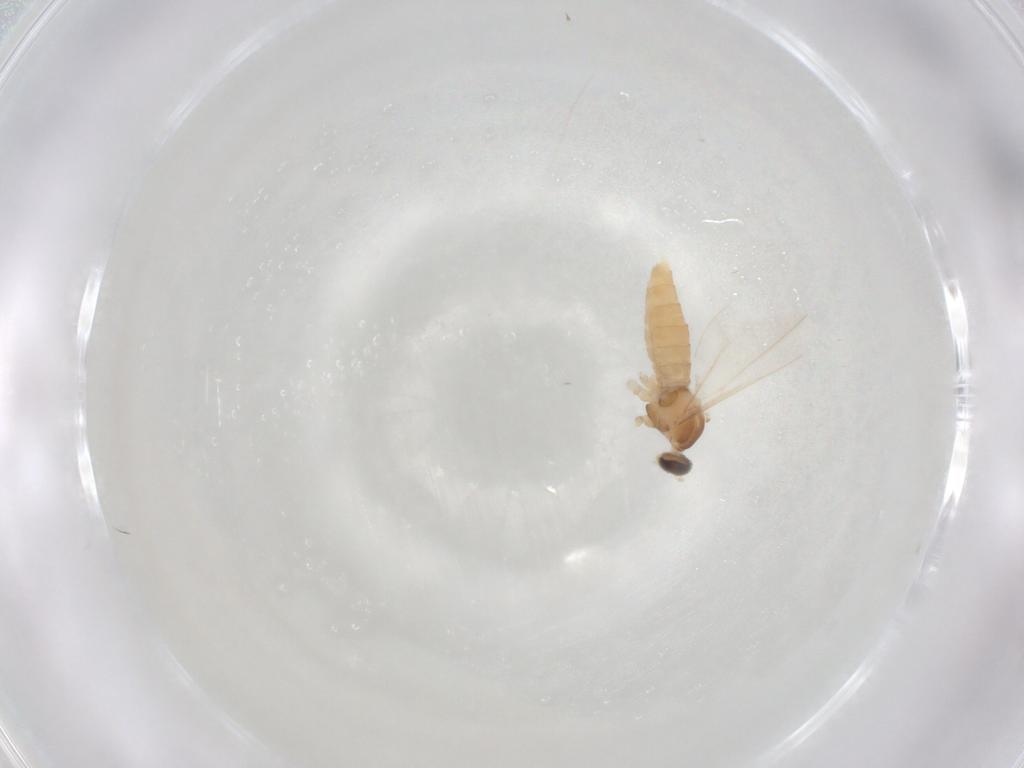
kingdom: Animalia
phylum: Arthropoda
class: Insecta
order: Diptera
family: Cecidomyiidae
